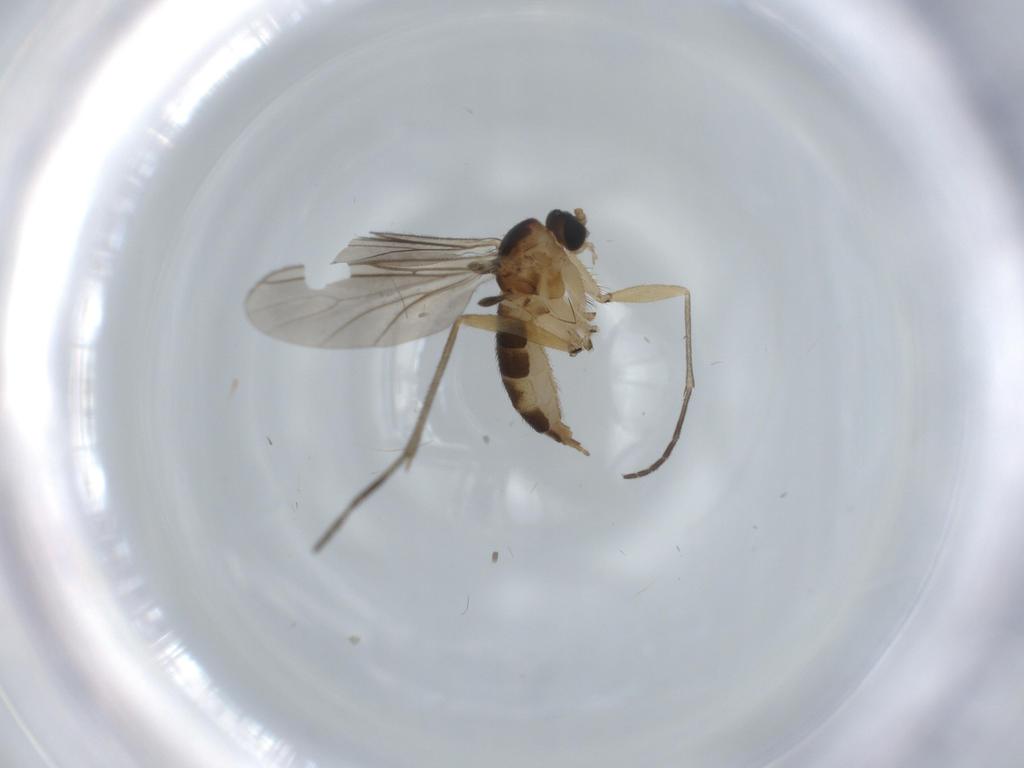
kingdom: Animalia
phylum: Arthropoda
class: Insecta
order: Diptera
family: Sciaridae
